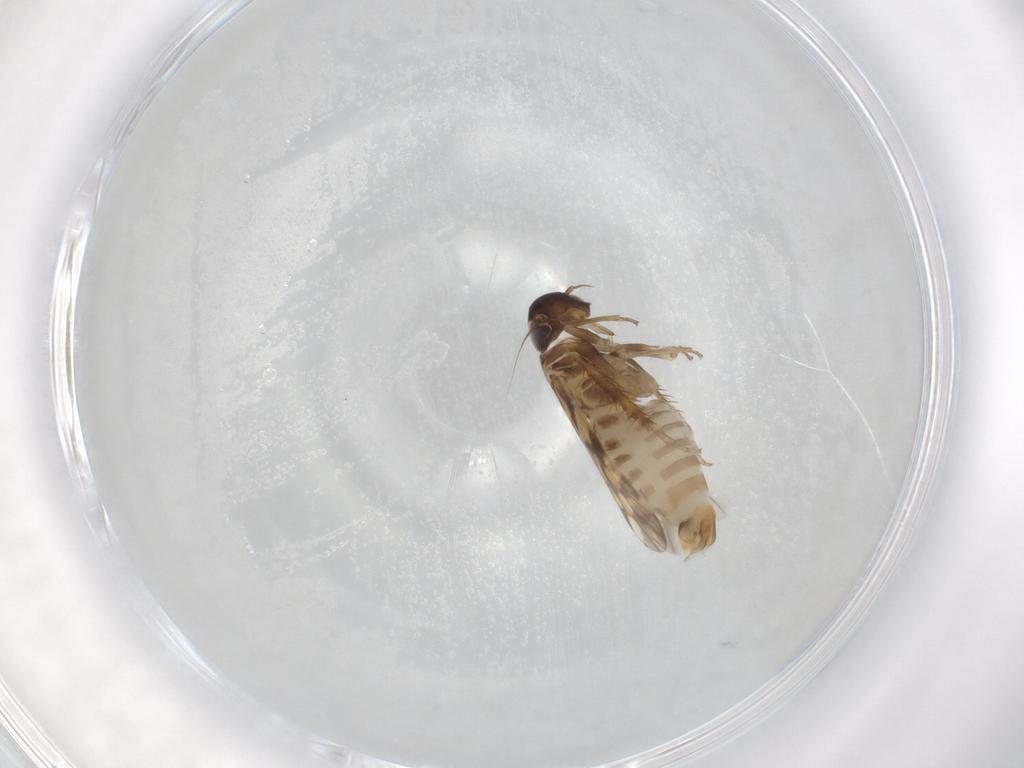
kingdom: Animalia
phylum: Arthropoda
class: Insecta
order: Hemiptera
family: Cicadellidae
